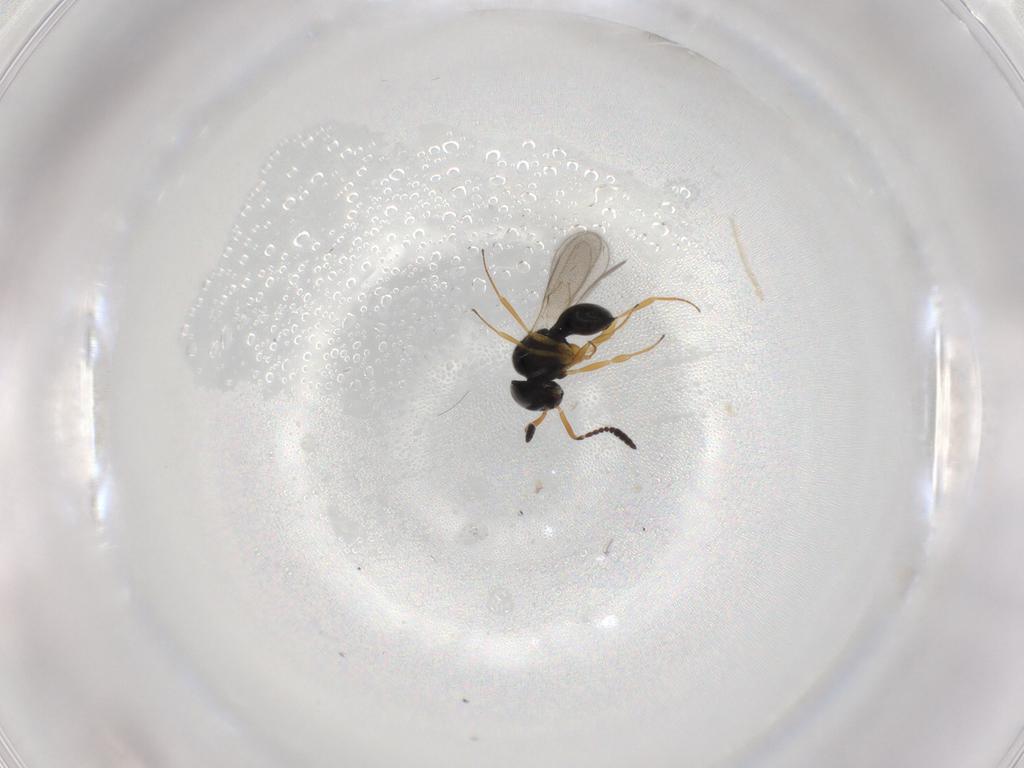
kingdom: Animalia
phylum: Arthropoda
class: Insecta
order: Hymenoptera
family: Scelionidae
